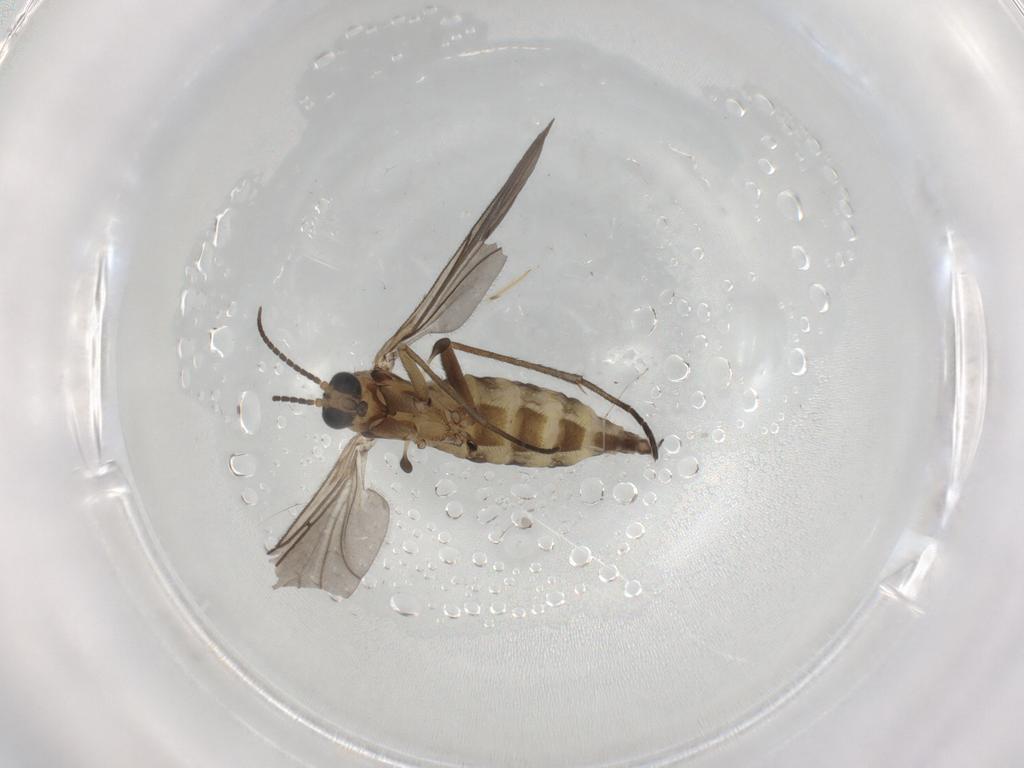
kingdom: Animalia
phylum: Arthropoda
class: Insecta
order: Diptera
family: Sciaridae
